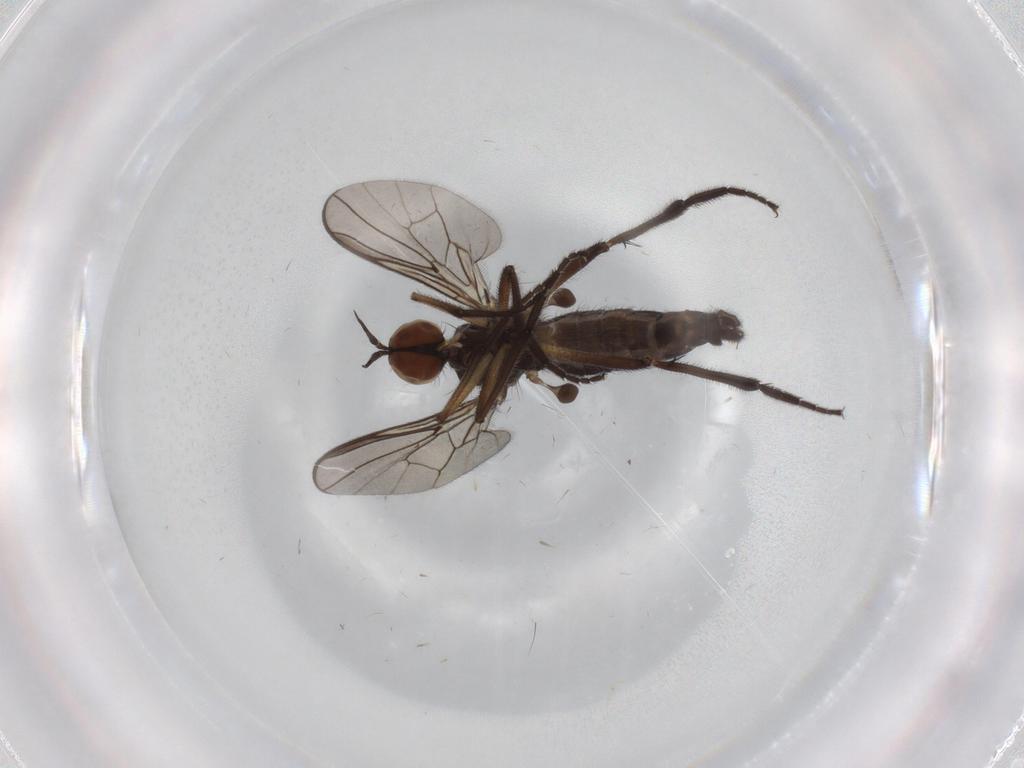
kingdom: Animalia
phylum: Arthropoda
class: Insecta
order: Diptera
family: Empididae
